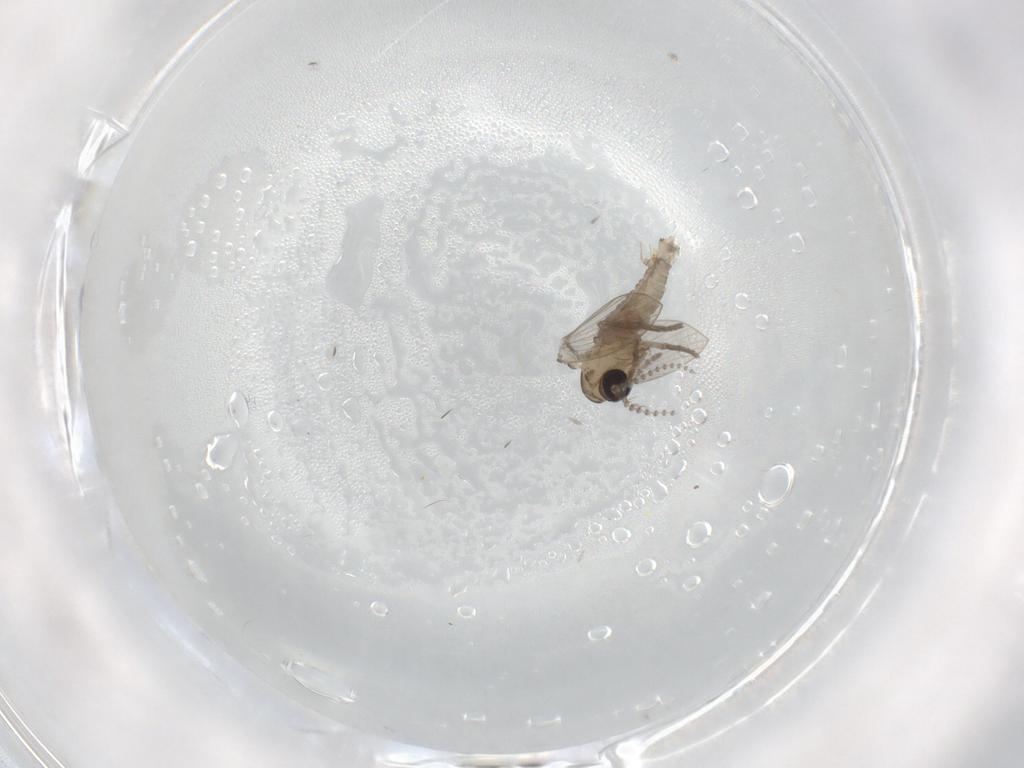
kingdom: Animalia
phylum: Arthropoda
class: Insecta
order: Diptera
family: Psychodidae
